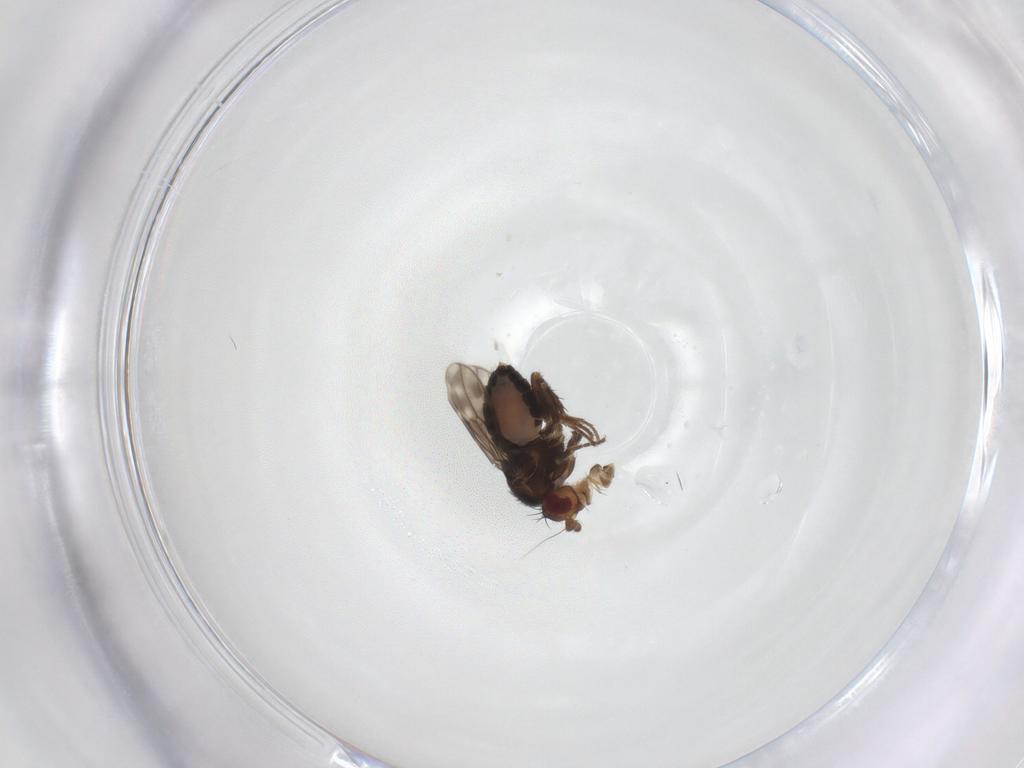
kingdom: Animalia
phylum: Arthropoda
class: Insecta
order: Diptera
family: Sphaeroceridae
